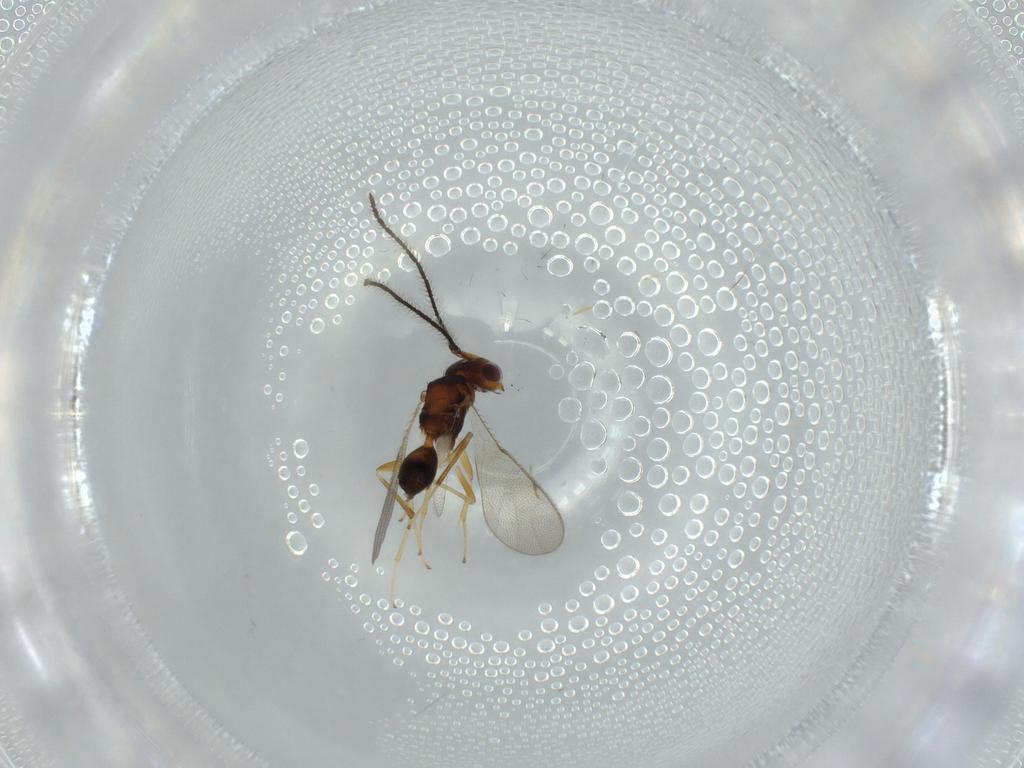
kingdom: Animalia
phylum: Arthropoda
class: Insecta
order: Hymenoptera
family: Diparidae
